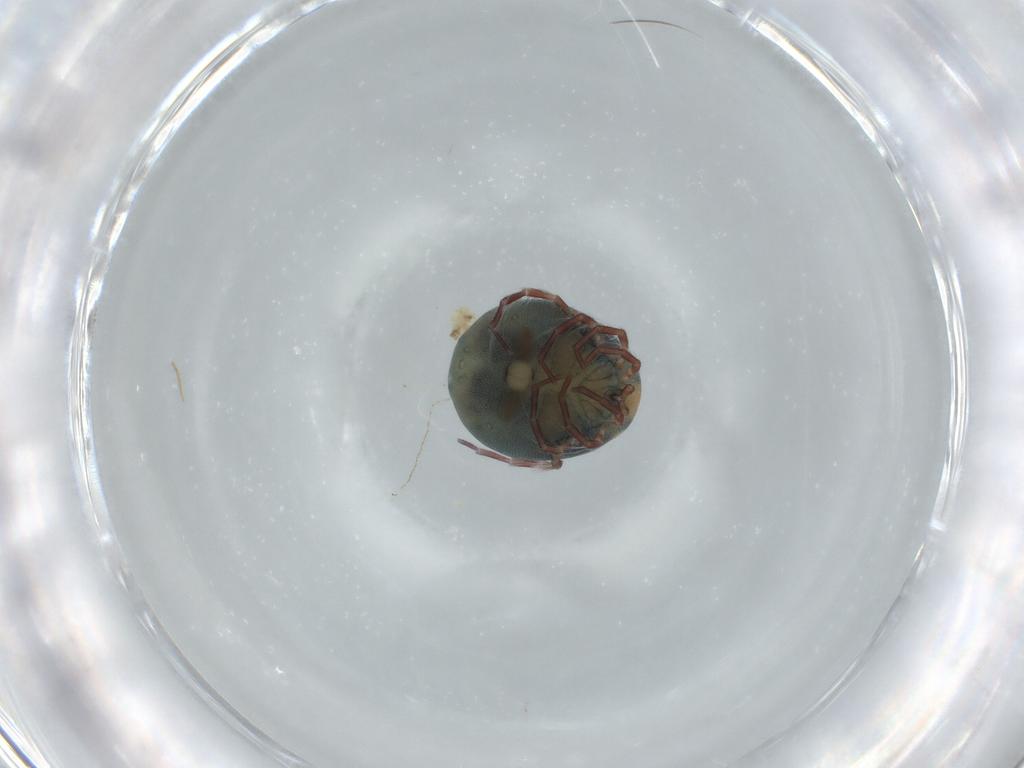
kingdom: Animalia
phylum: Arthropoda
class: Arachnida
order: Trombidiformes
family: Arrenuridae
